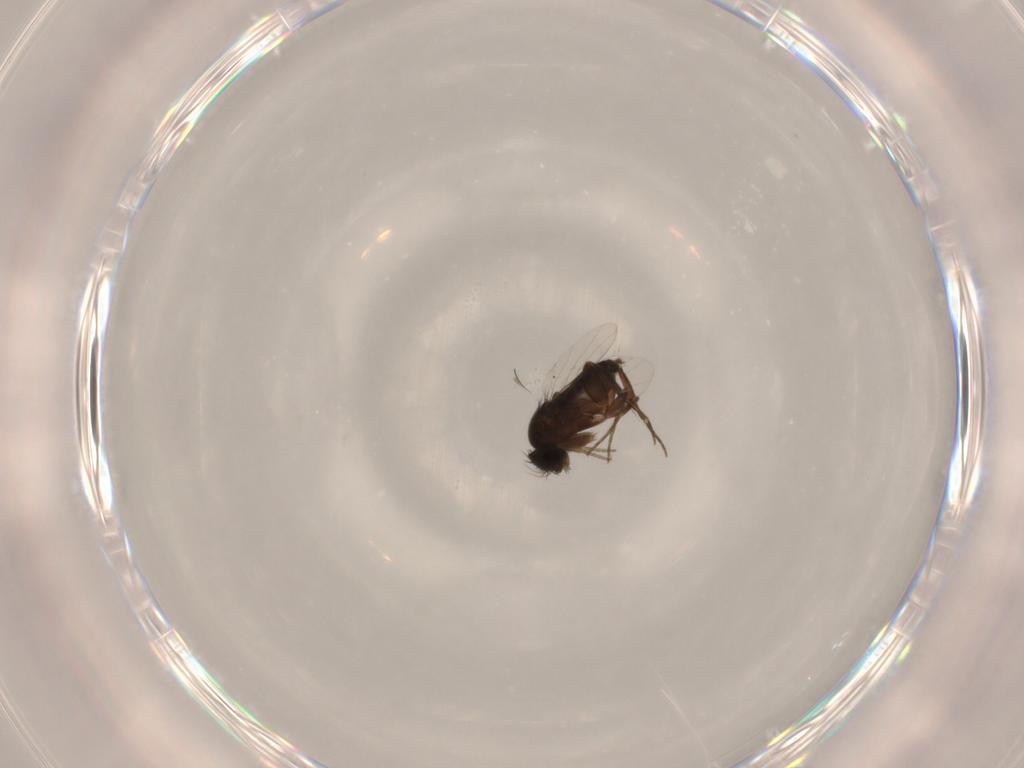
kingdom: Animalia
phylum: Arthropoda
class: Insecta
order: Diptera
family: Phoridae
